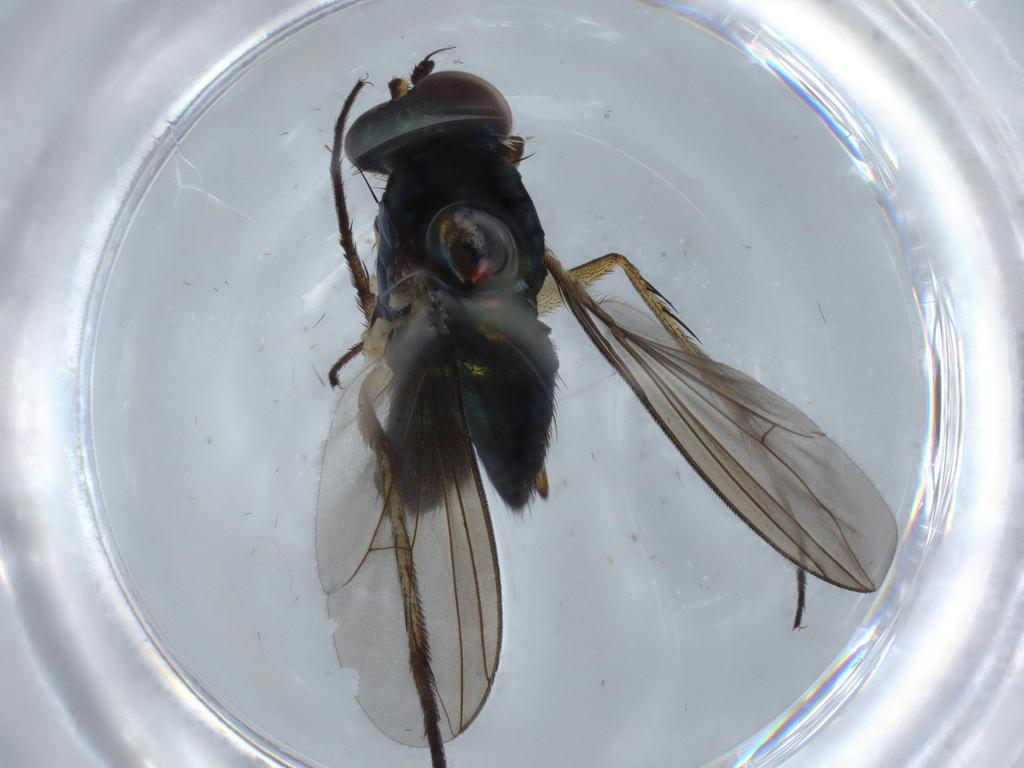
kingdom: Animalia
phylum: Arthropoda
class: Insecta
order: Diptera
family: Dolichopodidae
